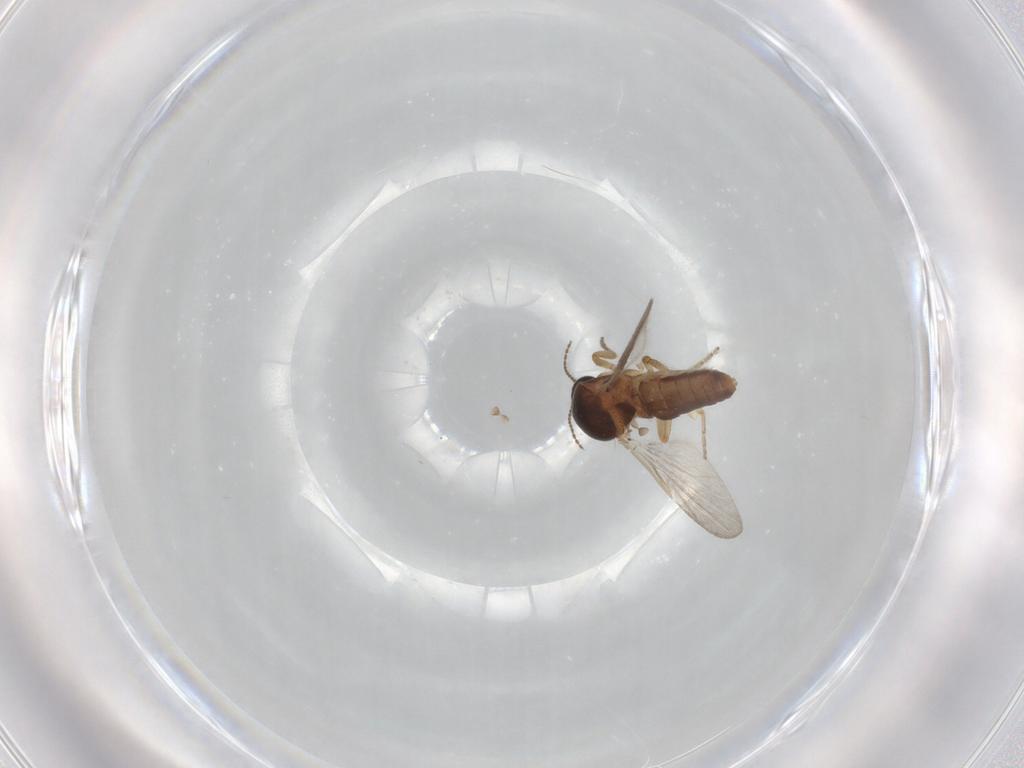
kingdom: Animalia
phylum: Arthropoda
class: Insecta
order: Diptera
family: Ceratopogonidae
